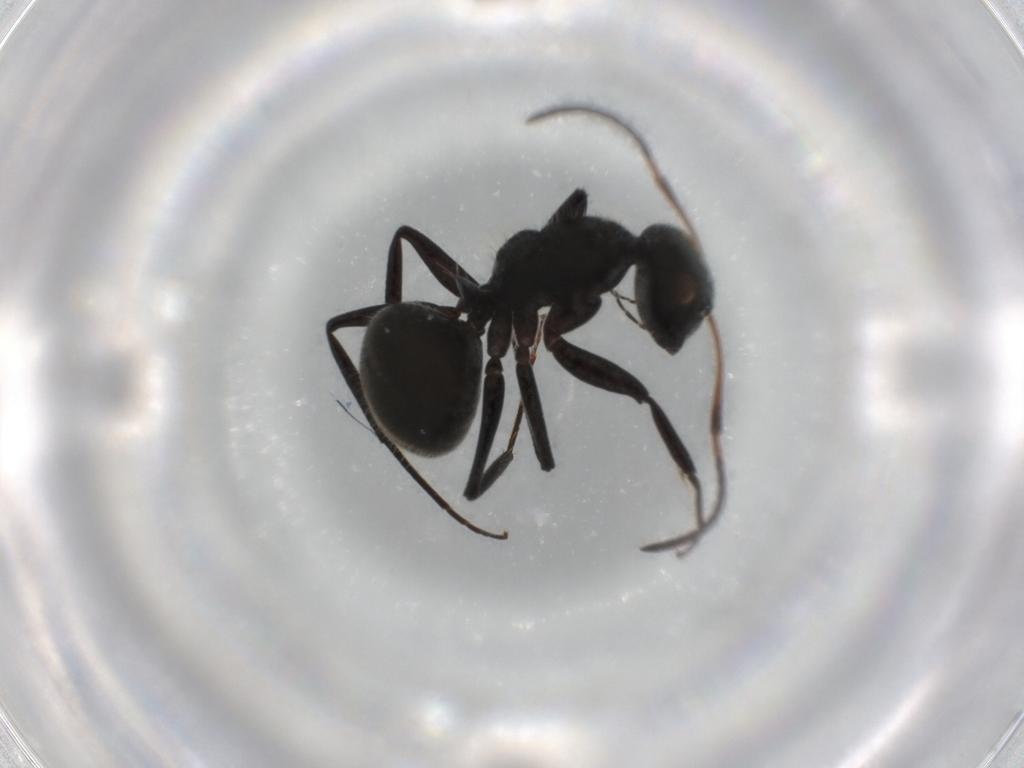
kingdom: Animalia
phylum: Arthropoda
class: Insecta
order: Hymenoptera
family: Formicidae
